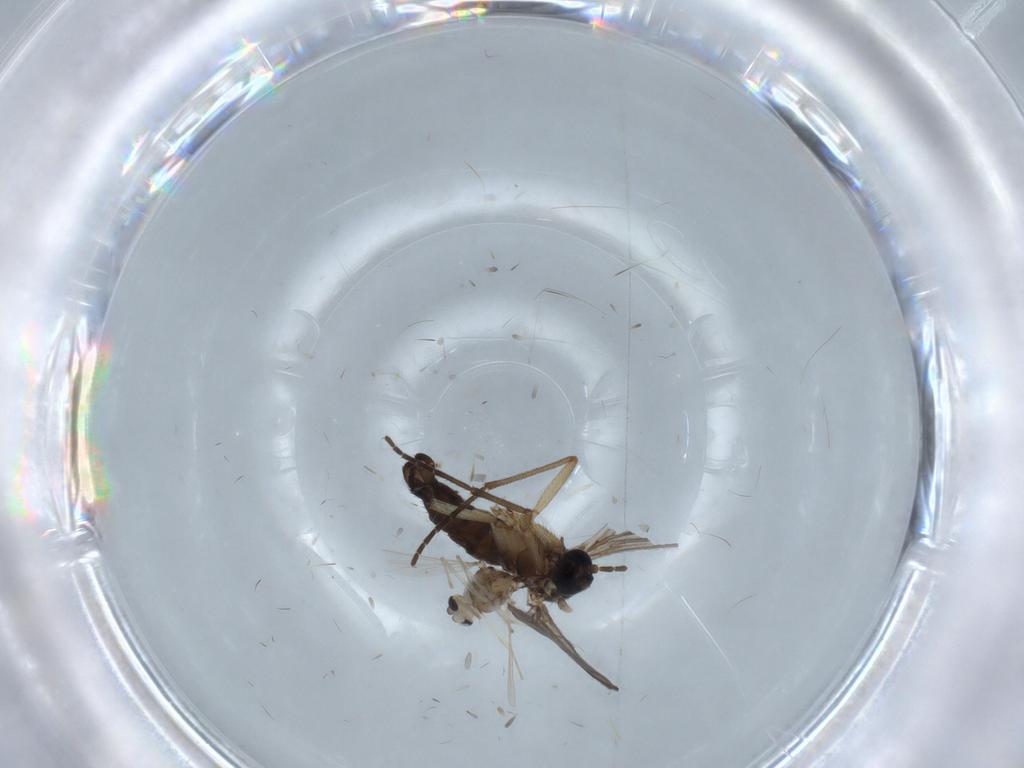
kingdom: Animalia
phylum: Arthropoda
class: Insecta
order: Diptera
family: Sciaridae
